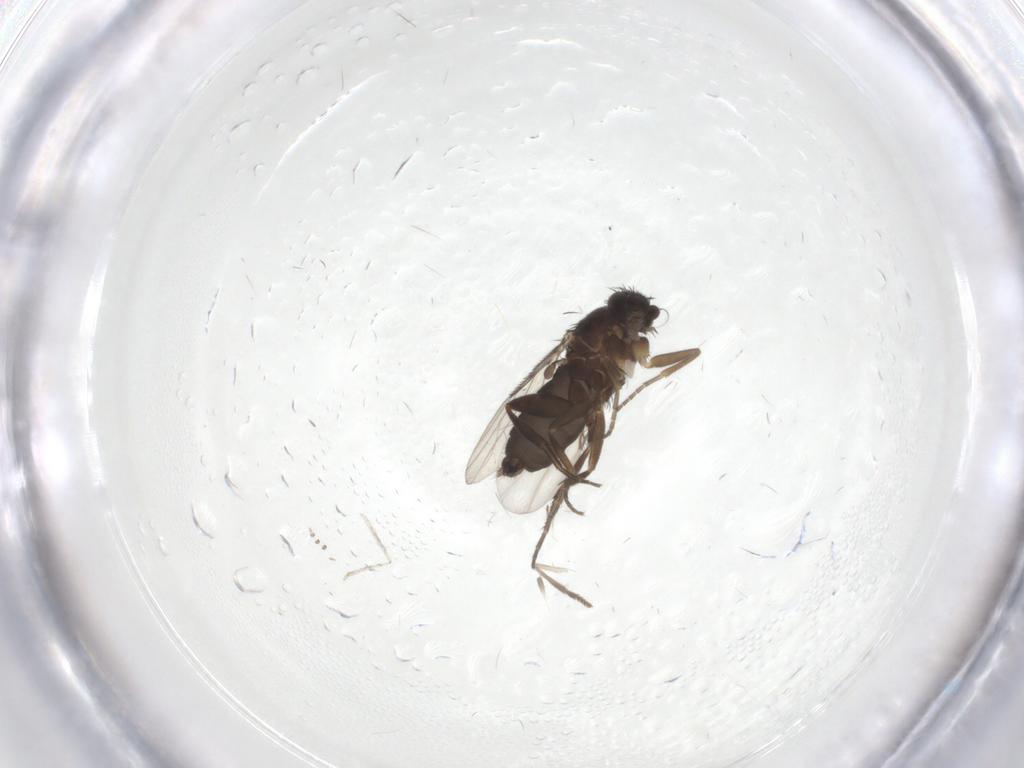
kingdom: Animalia
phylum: Arthropoda
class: Insecta
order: Diptera
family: Phoridae
